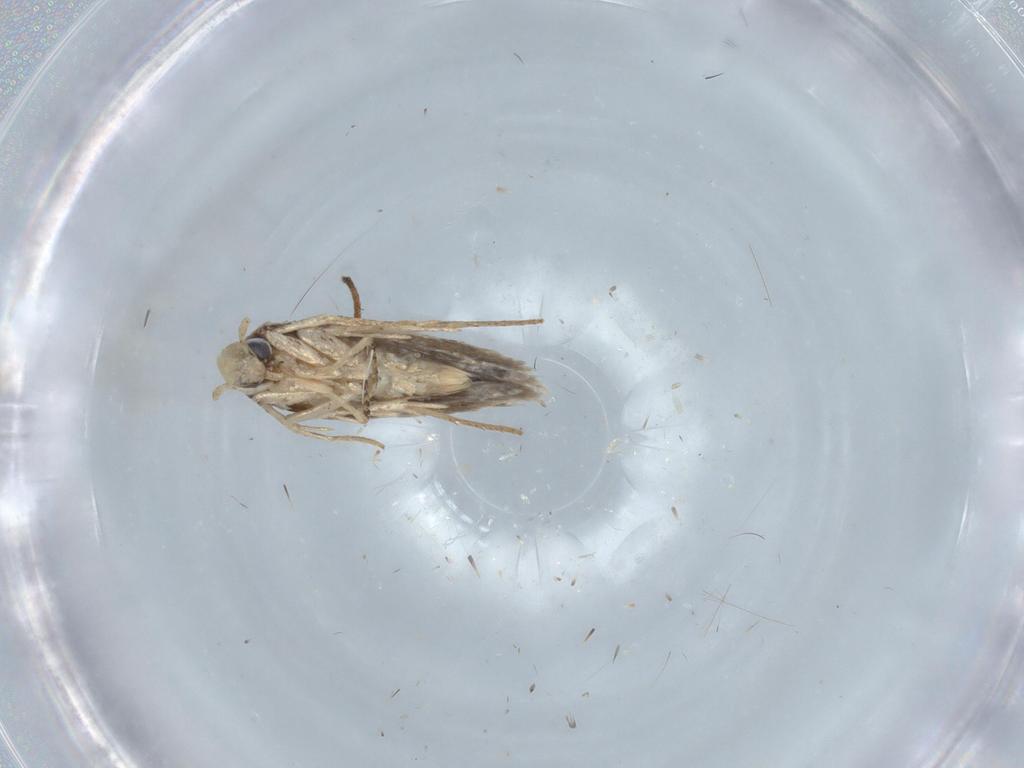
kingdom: Animalia
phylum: Arthropoda
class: Insecta
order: Lepidoptera
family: Gelechiidae
